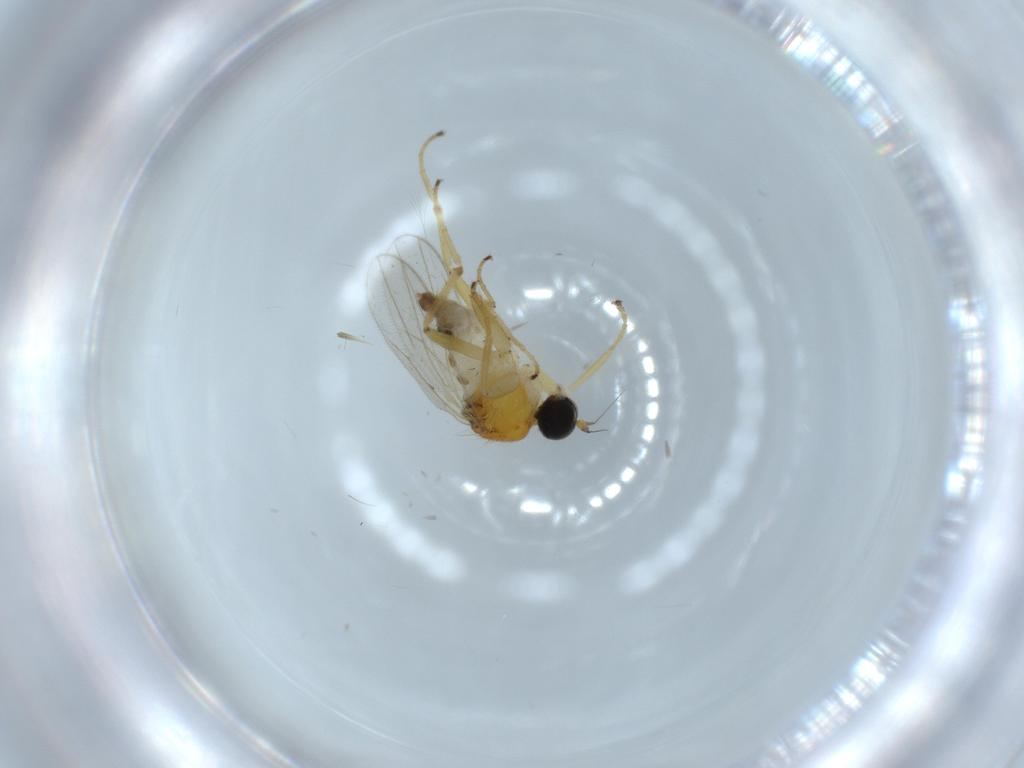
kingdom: Animalia
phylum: Arthropoda
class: Insecta
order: Diptera
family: Hybotidae
